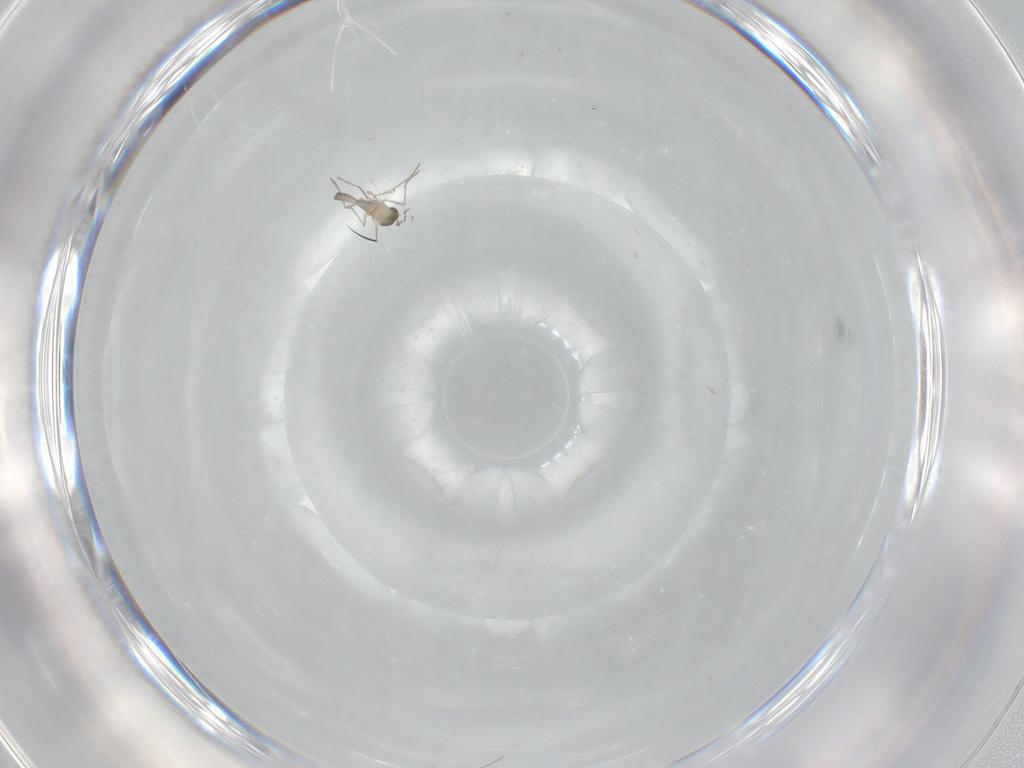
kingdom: Animalia
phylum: Arthropoda
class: Insecta
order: Diptera
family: Cecidomyiidae
